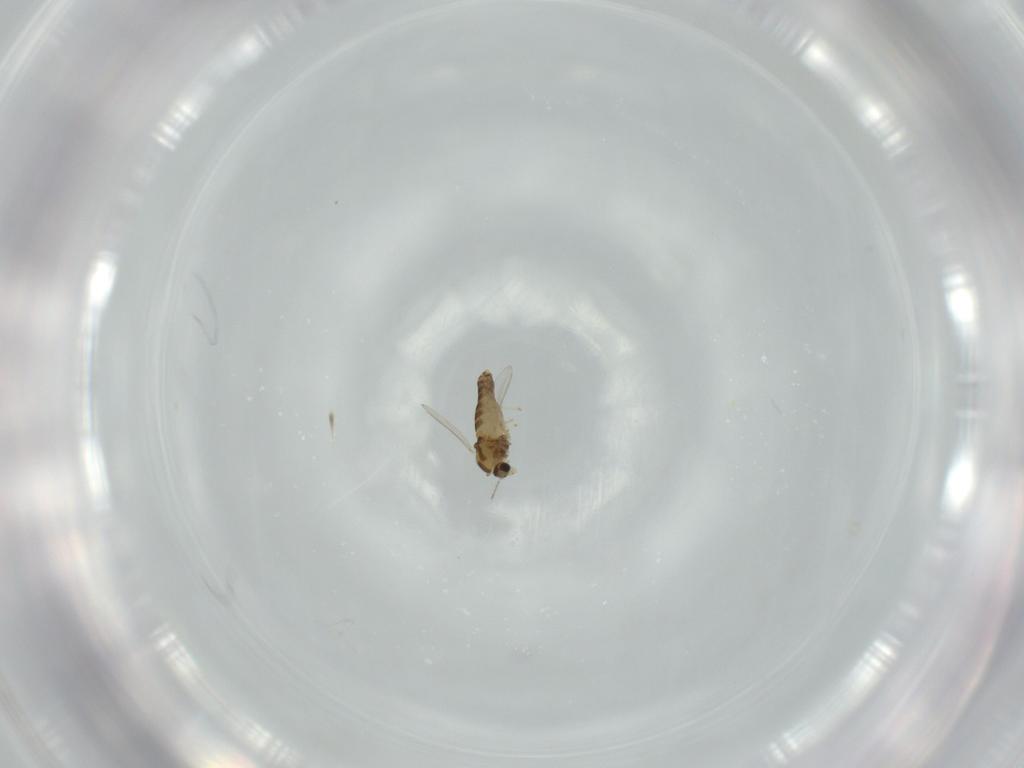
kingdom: Animalia
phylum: Arthropoda
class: Insecta
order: Diptera
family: Chironomidae
